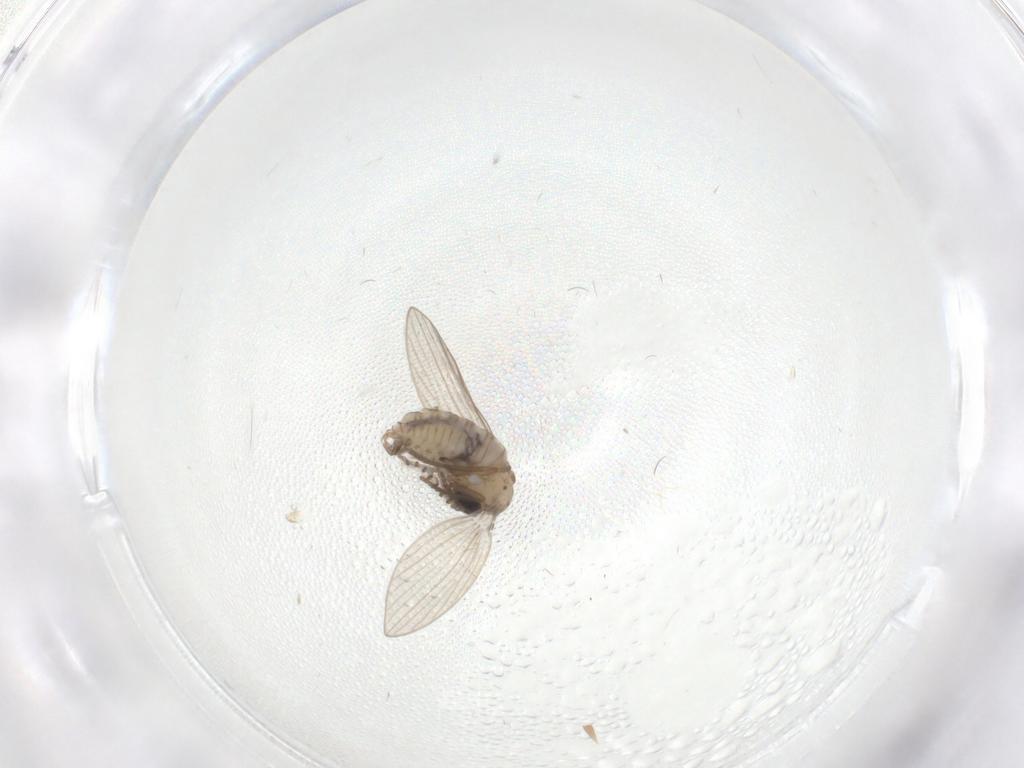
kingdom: Animalia
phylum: Arthropoda
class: Insecta
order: Diptera
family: Psychodidae
